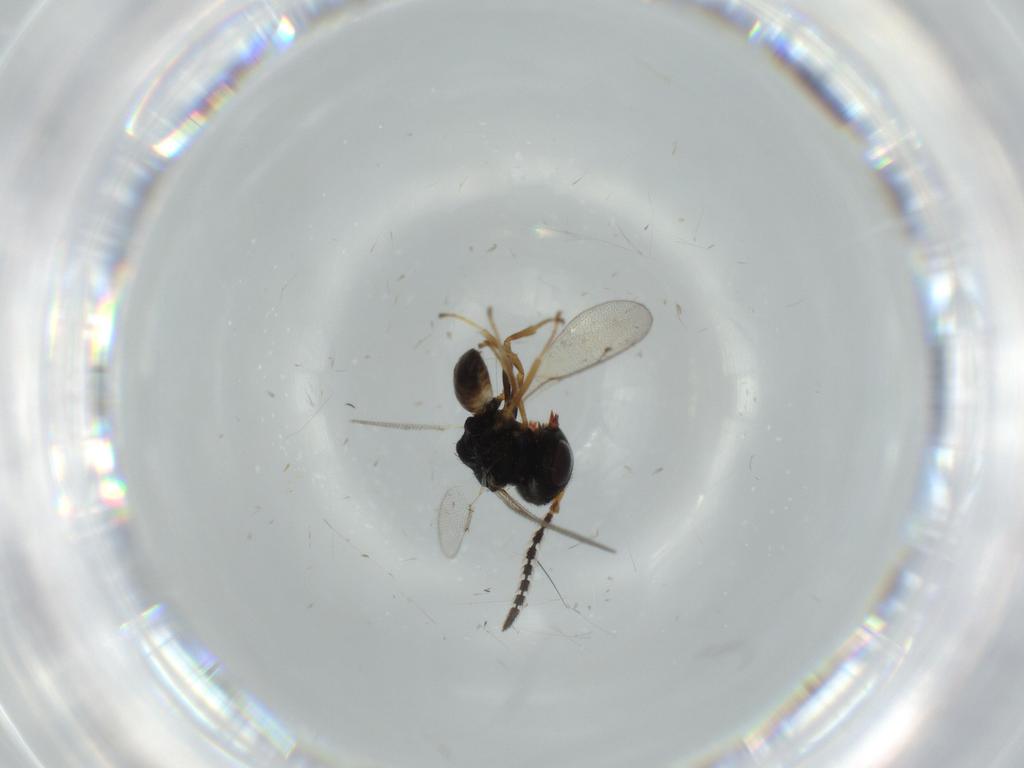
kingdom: Animalia
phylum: Arthropoda
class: Insecta
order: Hymenoptera
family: Pteromalidae
